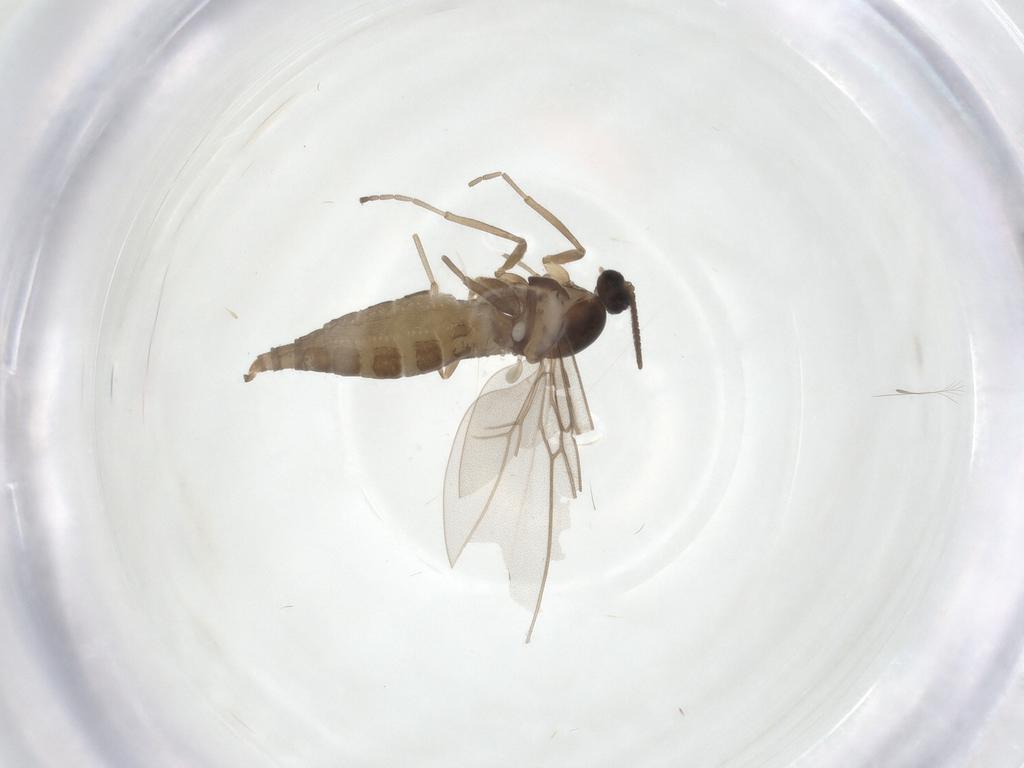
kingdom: Animalia
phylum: Arthropoda
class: Insecta
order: Diptera
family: Cecidomyiidae
